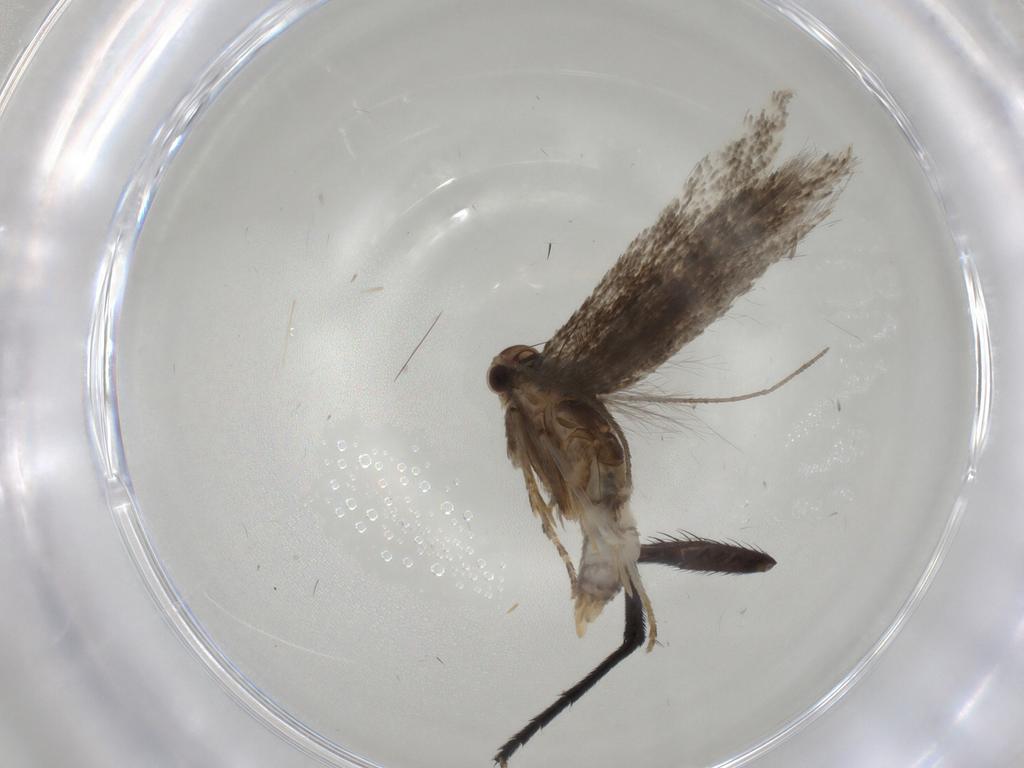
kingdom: Animalia
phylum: Arthropoda
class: Insecta
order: Lepidoptera
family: Elachistidae
